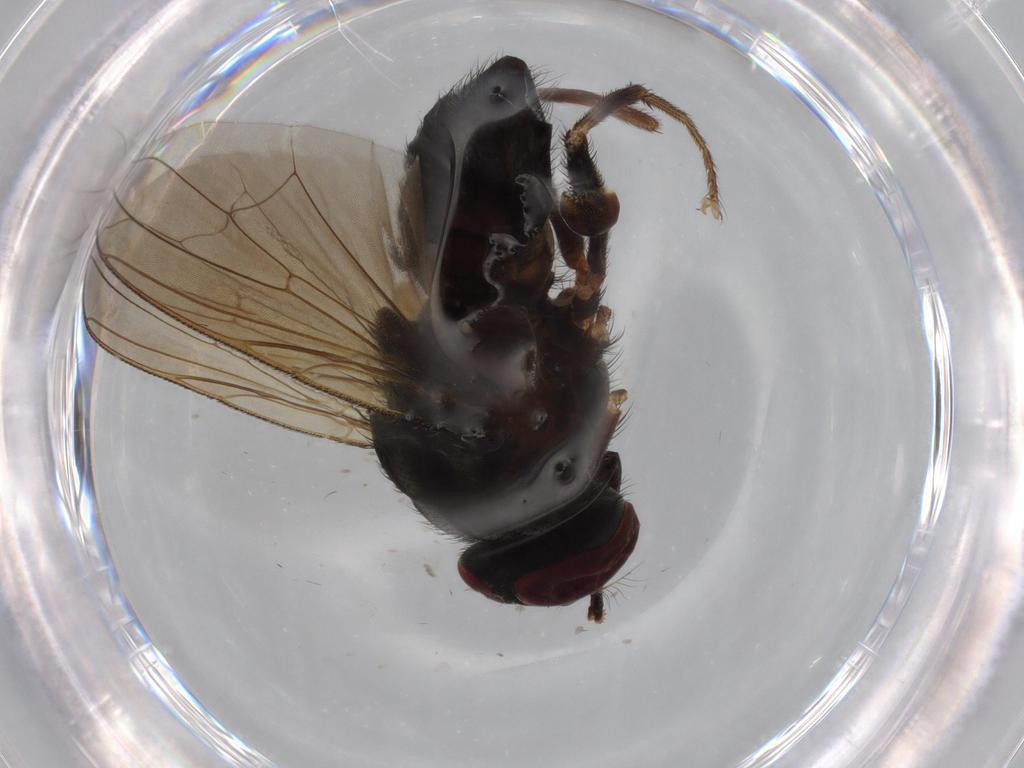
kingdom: Animalia
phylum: Arthropoda
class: Insecta
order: Diptera
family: Muscidae
